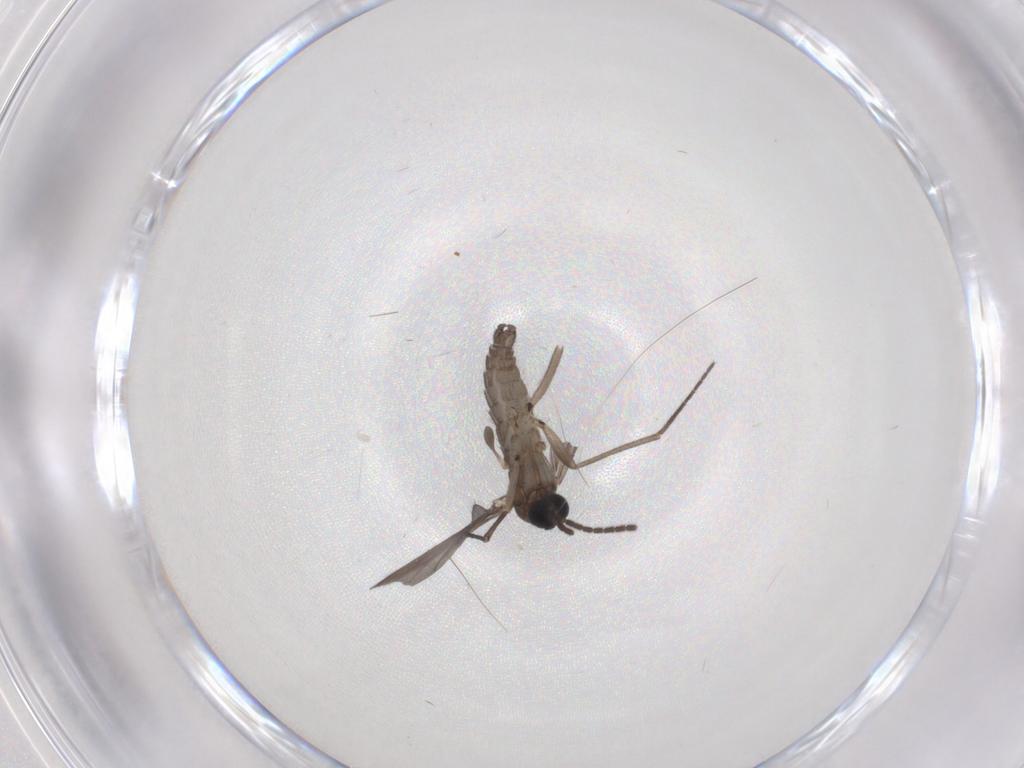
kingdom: Animalia
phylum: Arthropoda
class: Insecta
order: Diptera
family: Sciaridae
